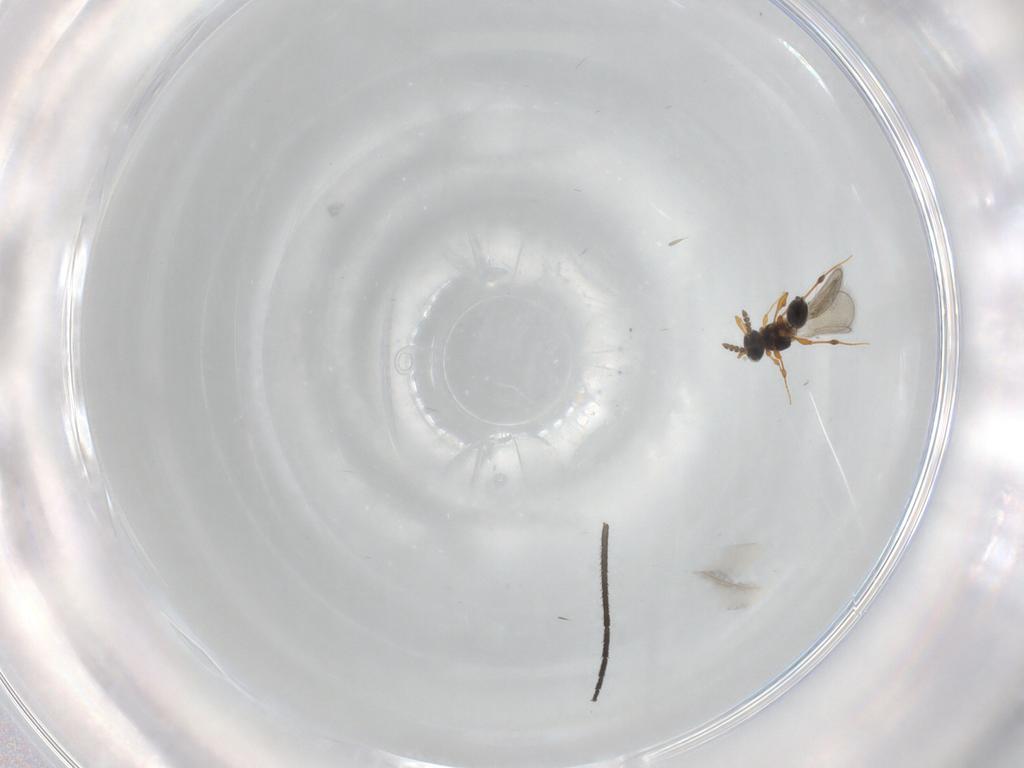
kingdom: Animalia
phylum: Arthropoda
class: Insecta
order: Hymenoptera
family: Platygastridae
